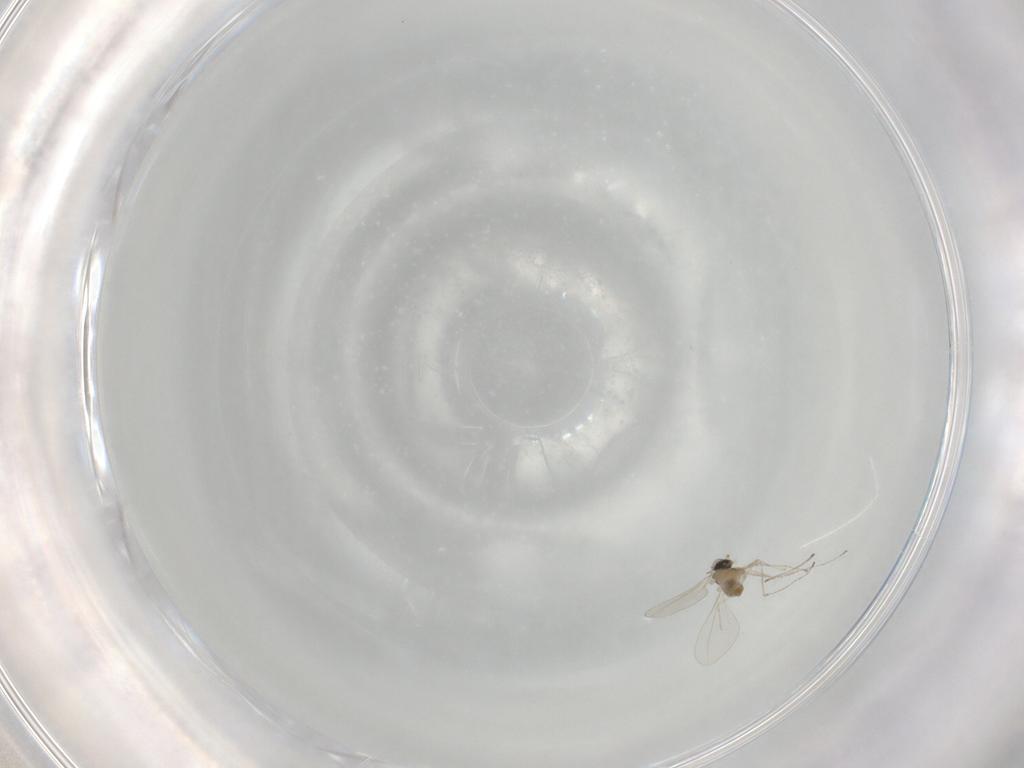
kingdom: Animalia
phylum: Arthropoda
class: Insecta
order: Diptera
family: Cecidomyiidae
